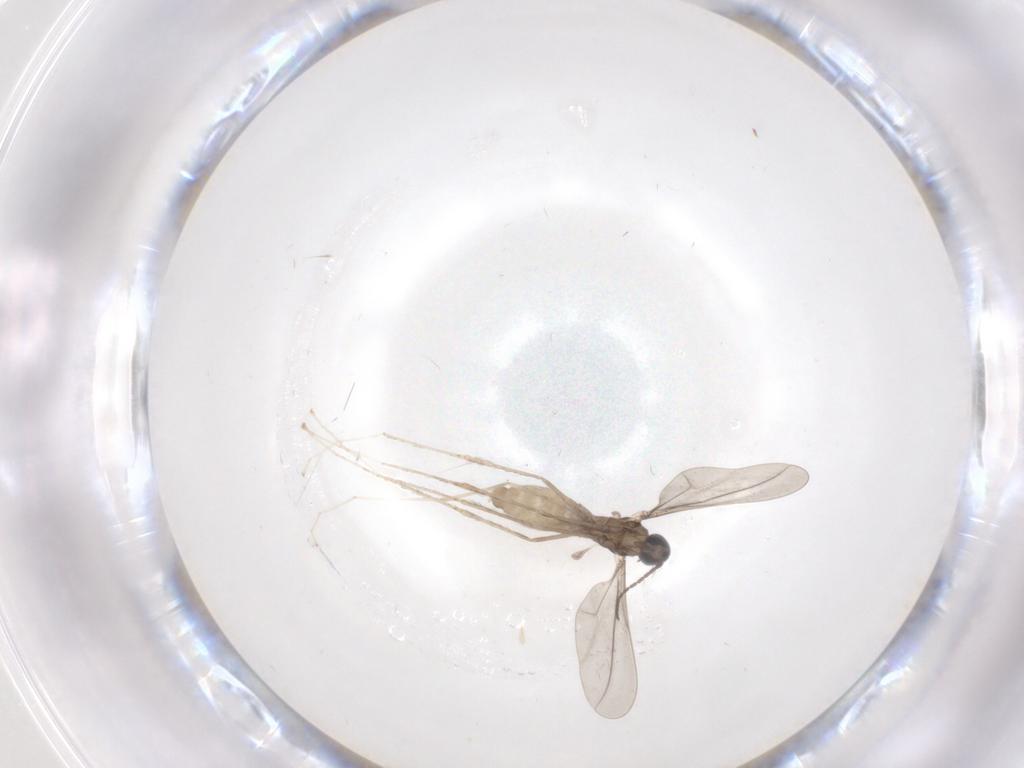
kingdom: Animalia
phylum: Arthropoda
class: Insecta
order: Diptera
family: Cecidomyiidae
